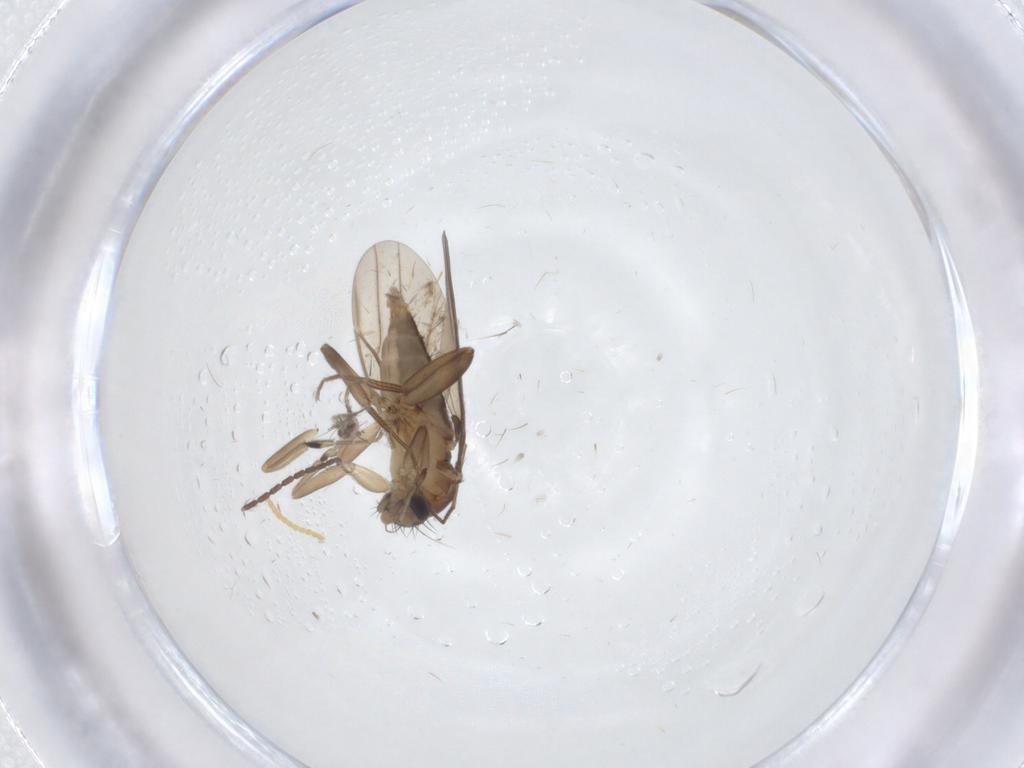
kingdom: Animalia
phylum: Arthropoda
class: Insecta
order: Diptera
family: Cecidomyiidae
